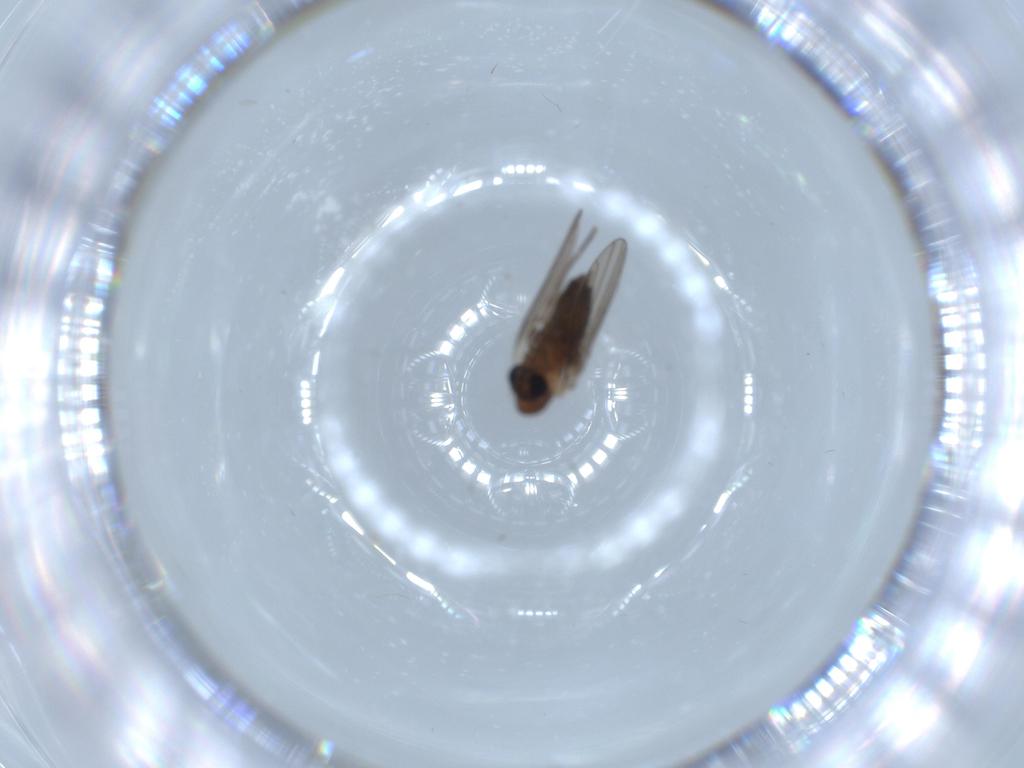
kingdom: Animalia
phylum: Arthropoda
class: Insecta
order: Diptera
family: Psychodidae
